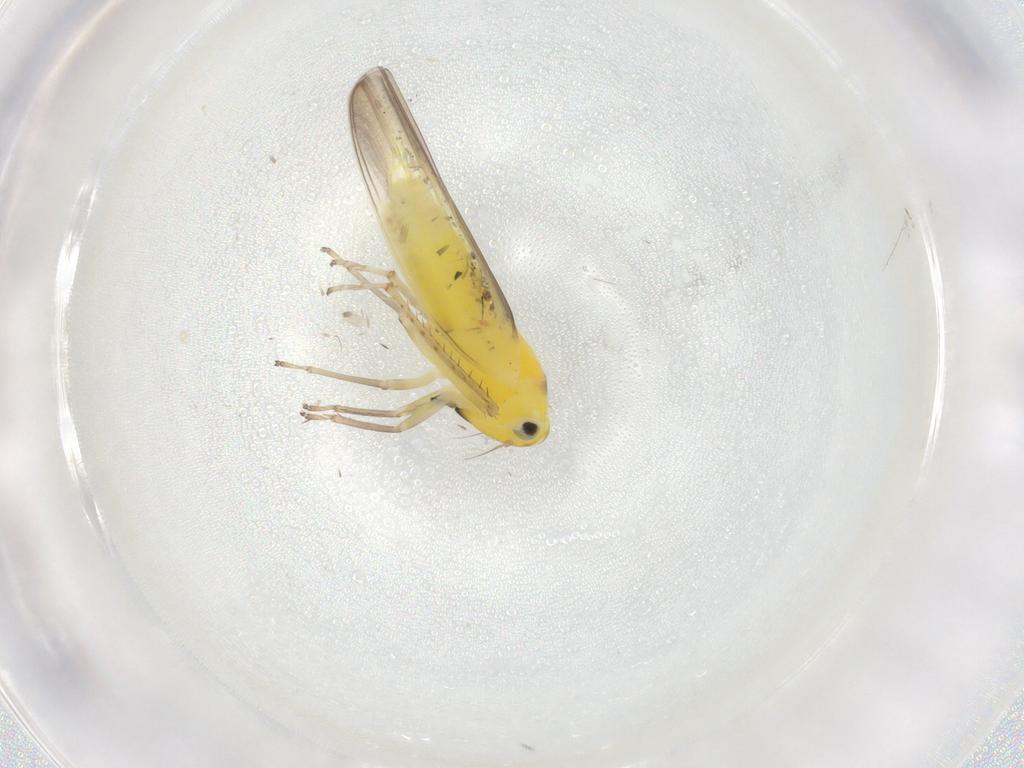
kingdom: Animalia
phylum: Arthropoda
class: Insecta
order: Hemiptera
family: Cicadellidae
